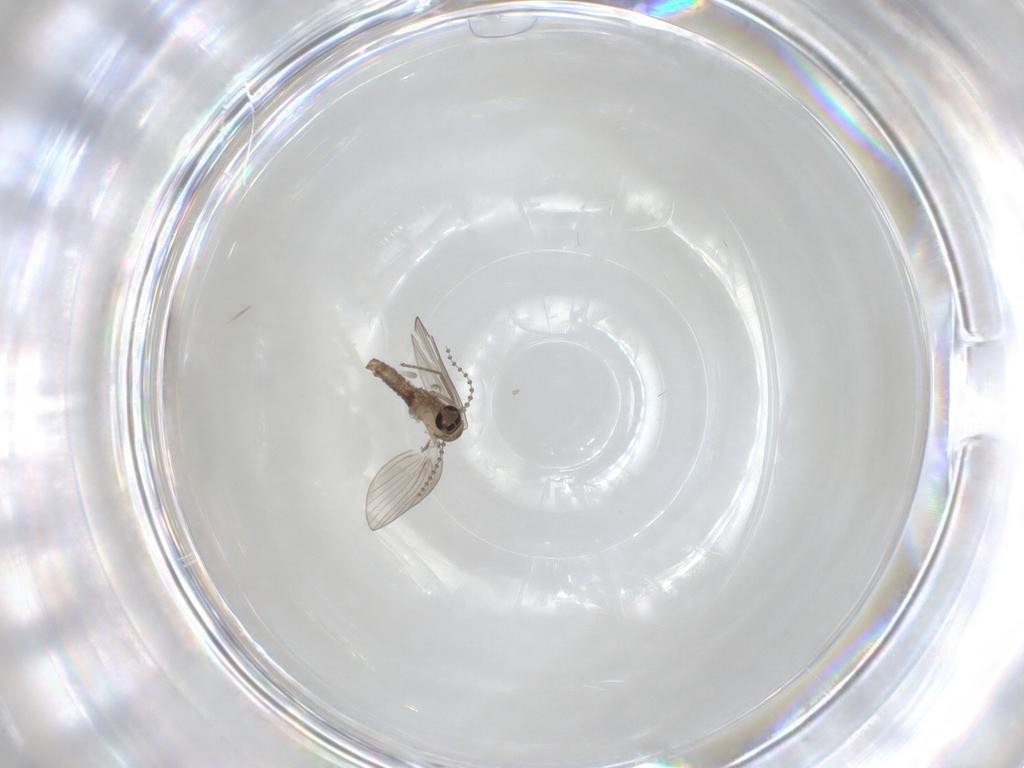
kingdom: Animalia
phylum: Arthropoda
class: Insecta
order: Diptera
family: Psychodidae
